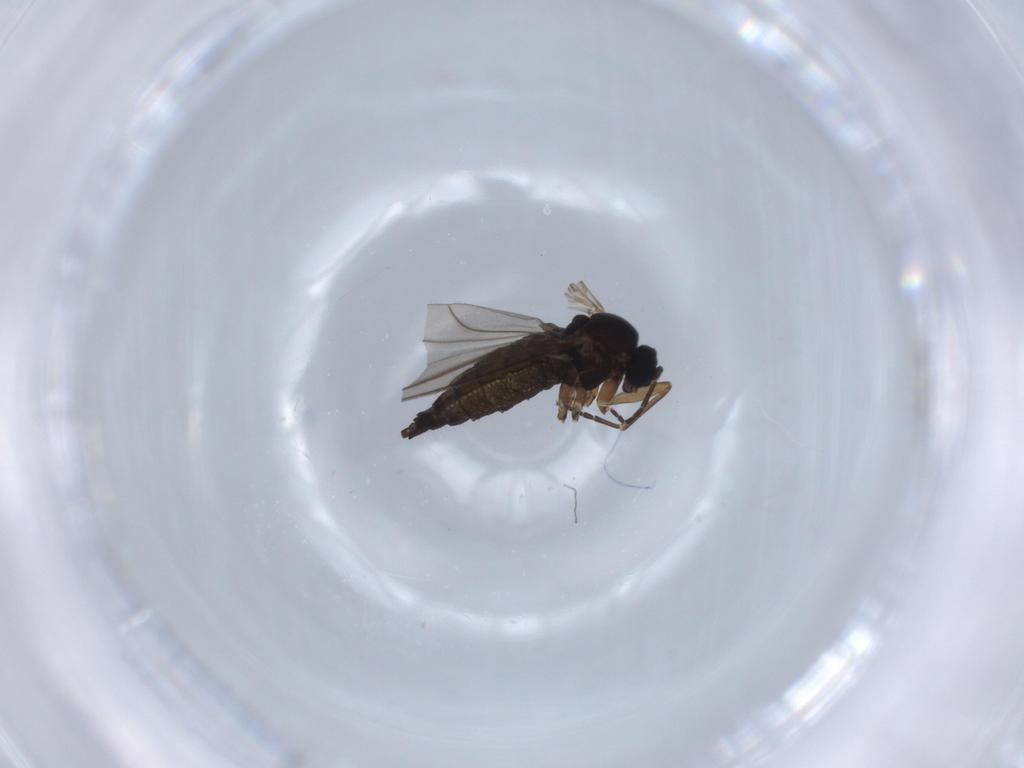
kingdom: Animalia
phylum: Arthropoda
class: Insecta
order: Diptera
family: Sciaridae
